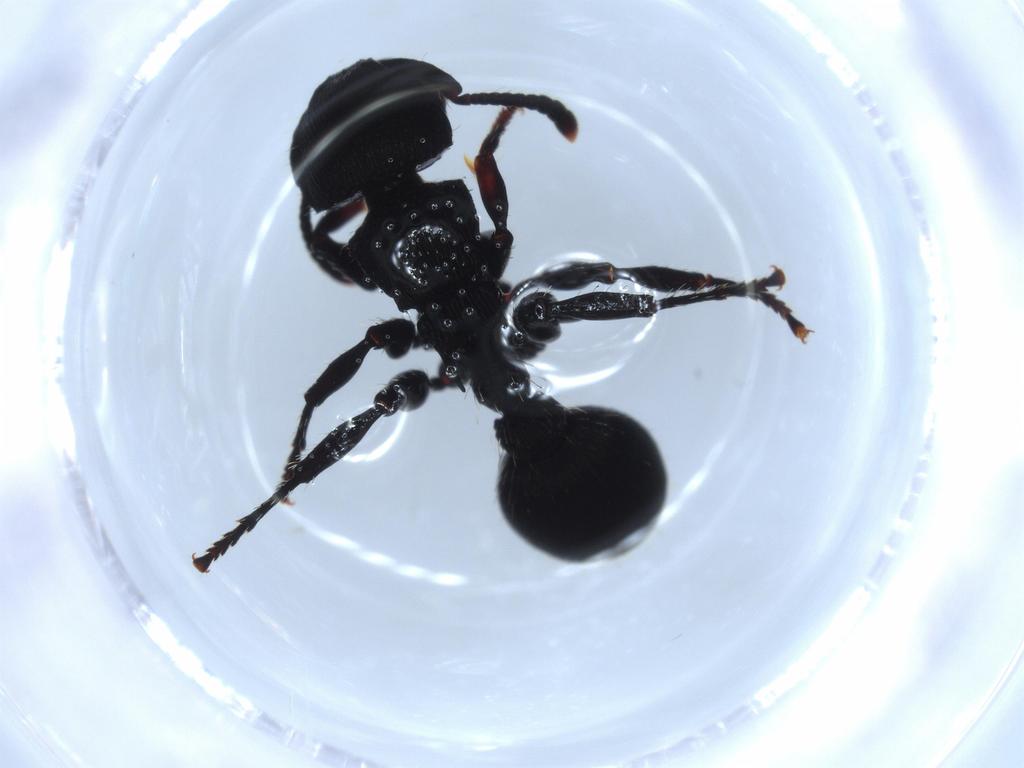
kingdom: Animalia
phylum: Arthropoda
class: Insecta
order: Hymenoptera
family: Formicidae
